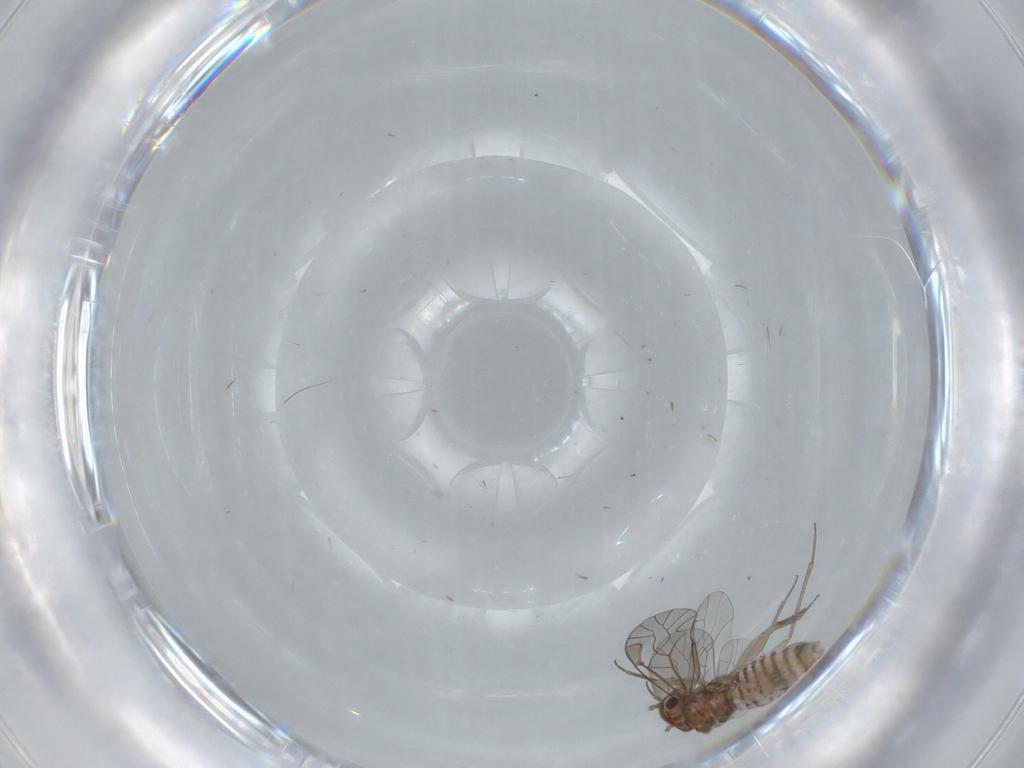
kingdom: Animalia
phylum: Arthropoda
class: Insecta
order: Psocodea
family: Lachesillidae
